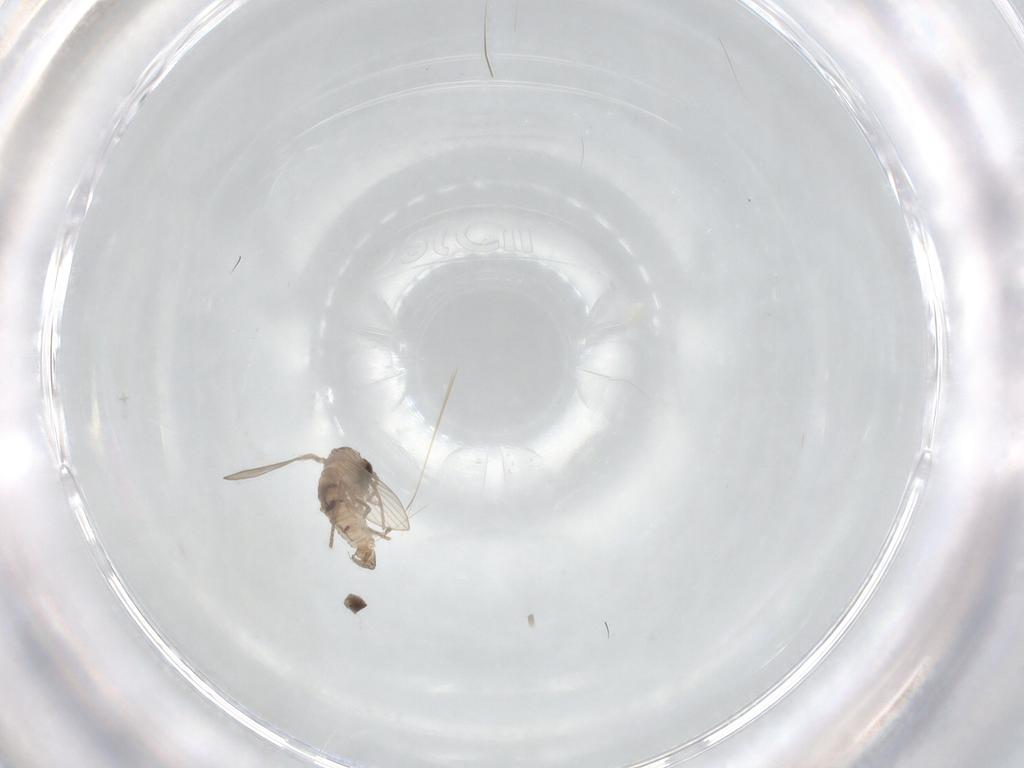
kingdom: Animalia
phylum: Arthropoda
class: Insecta
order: Diptera
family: Psychodidae
